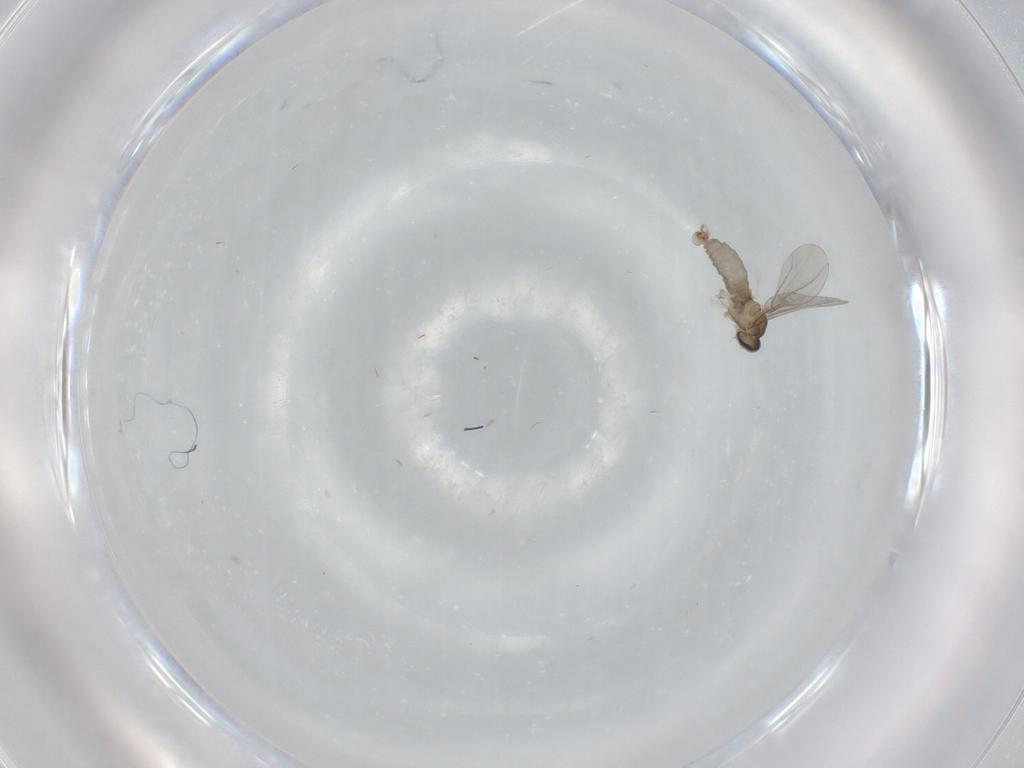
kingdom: Animalia
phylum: Arthropoda
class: Insecta
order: Diptera
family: Cecidomyiidae
